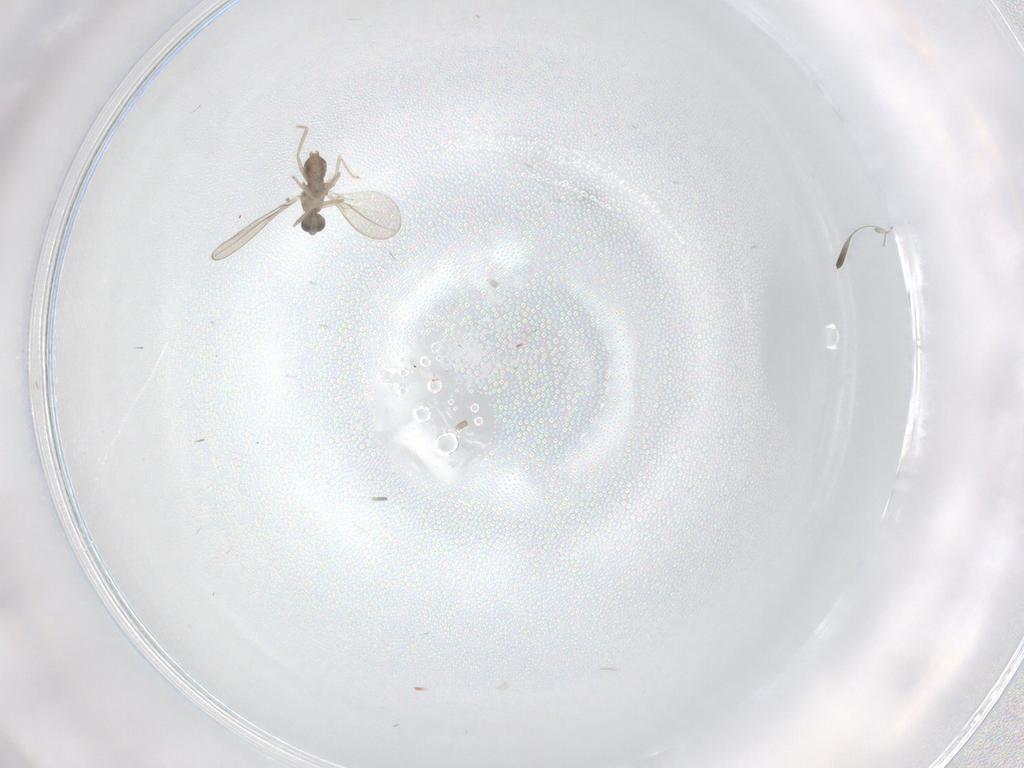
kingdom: Animalia
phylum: Arthropoda
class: Insecta
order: Diptera
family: Cecidomyiidae
